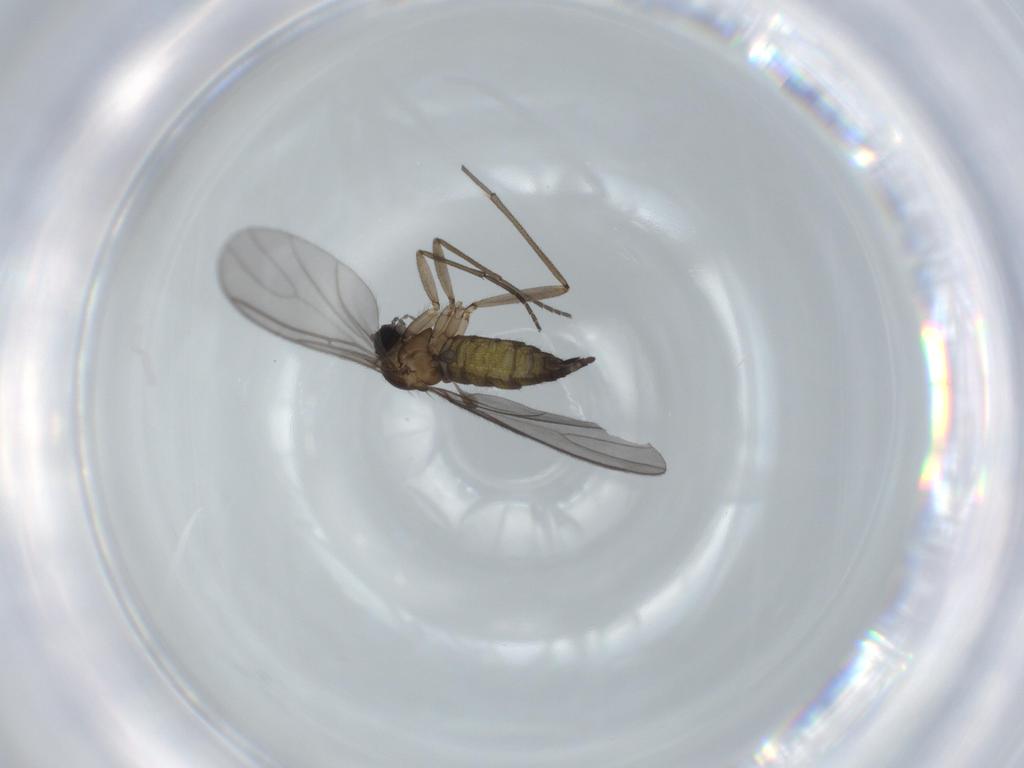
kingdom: Animalia
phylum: Arthropoda
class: Insecta
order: Diptera
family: Sciaridae
